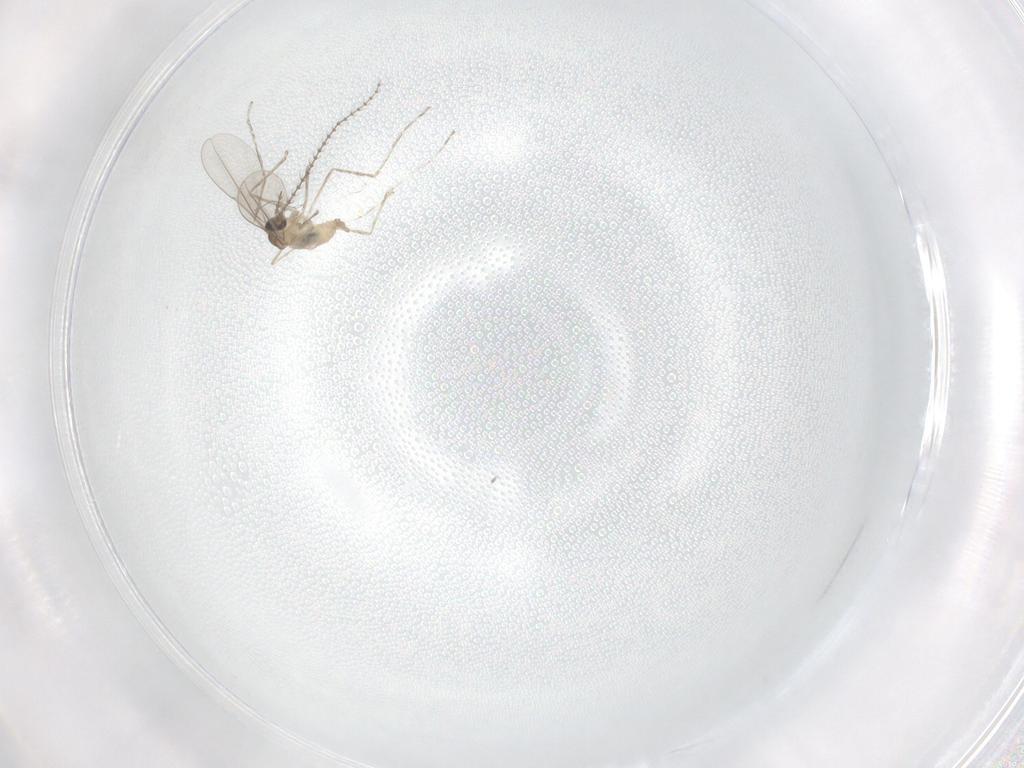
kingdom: Animalia
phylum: Arthropoda
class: Insecta
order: Diptera
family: Cecidomyiidae
